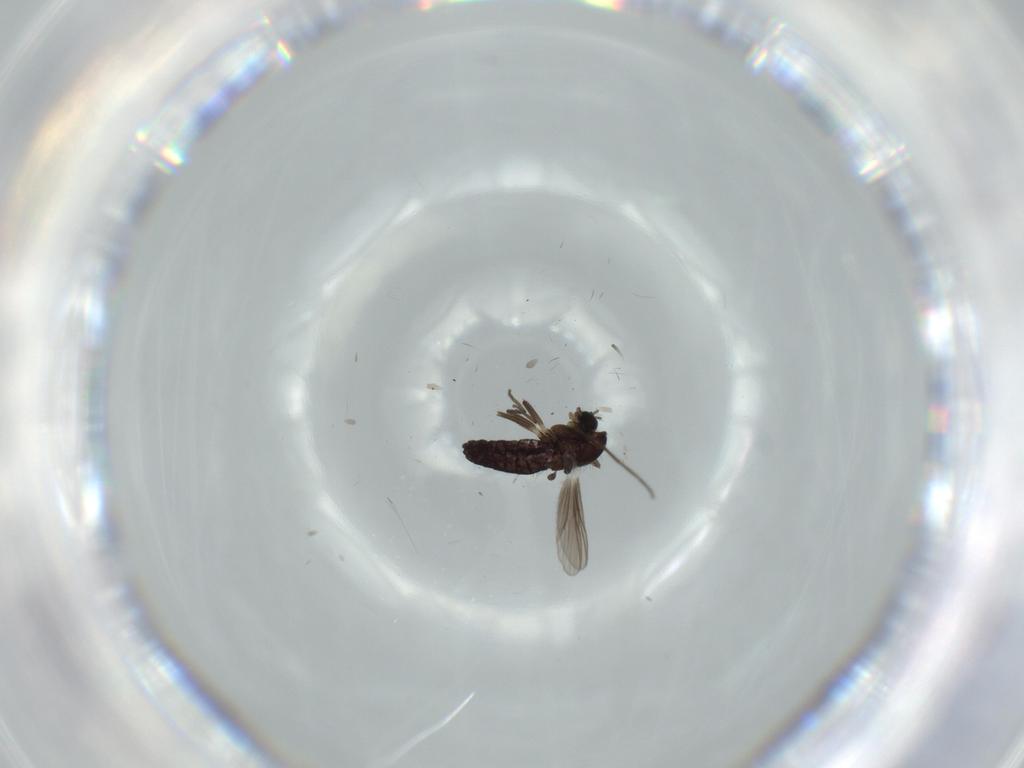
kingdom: Animalia
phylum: Arthropoda
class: Insecta
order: Diptera
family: Chironomidae
